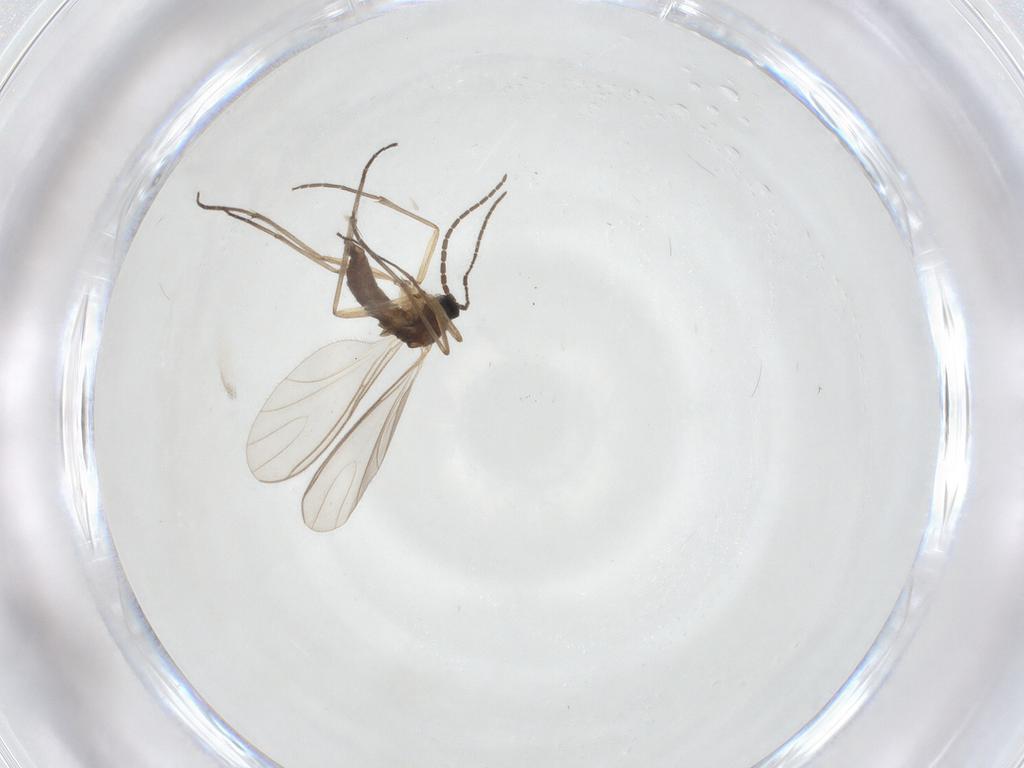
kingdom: Animalia
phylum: Arthropoda
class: Insecta
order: Diptera
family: Sciaridae
